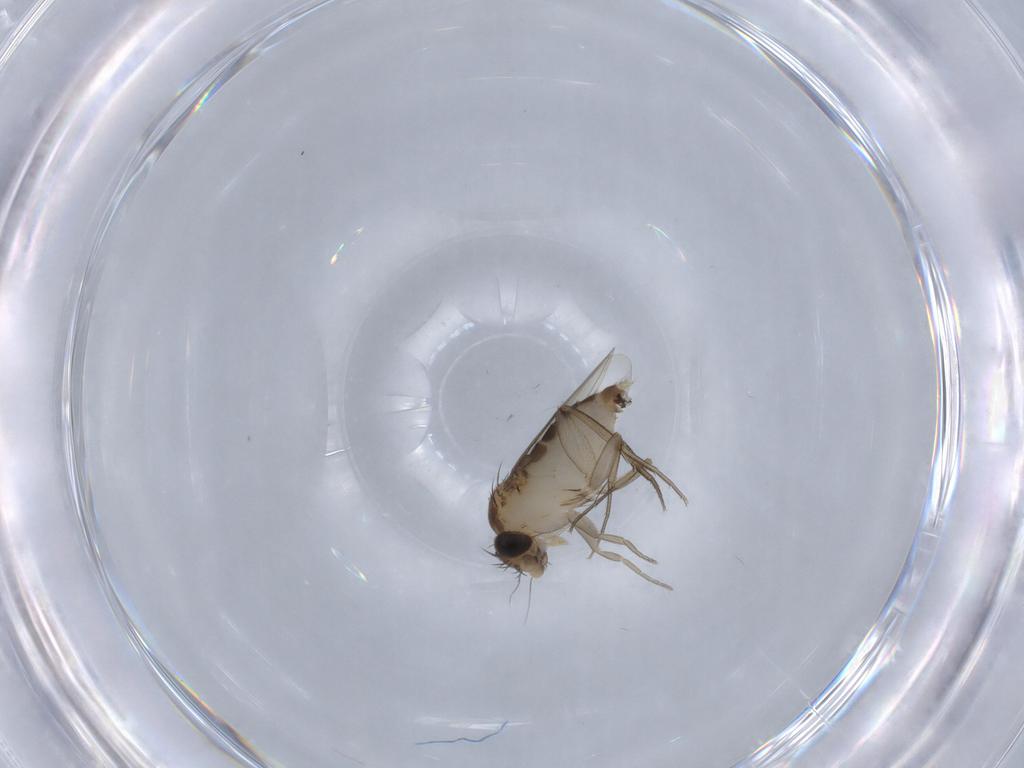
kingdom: Animalia
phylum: Arthropoda
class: Insecta
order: Diptera
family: Phoridae
